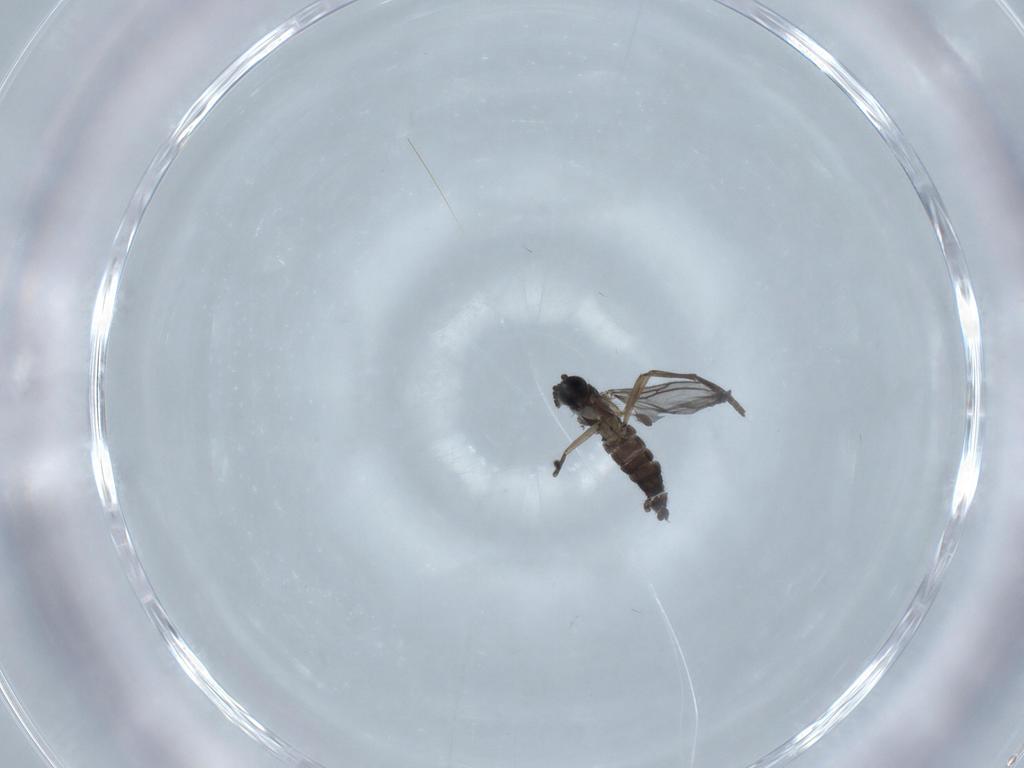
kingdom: Animalia
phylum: Arthropoda
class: Insecta
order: Diptera
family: Sciaridae
